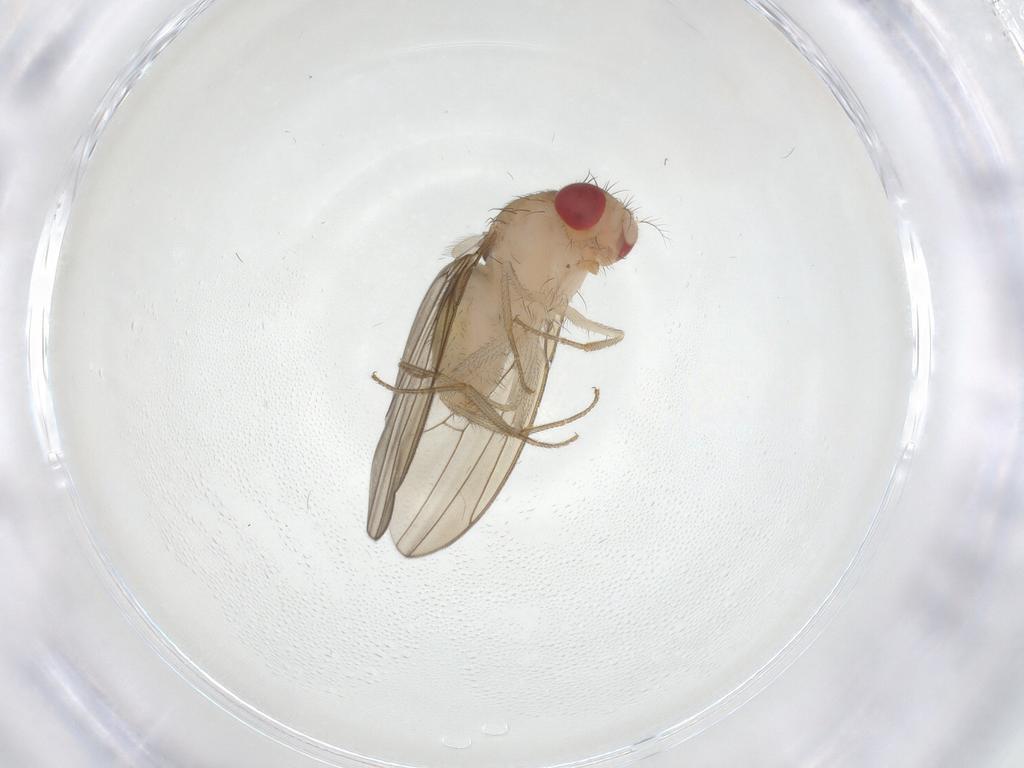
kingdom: Animalia
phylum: Arthropoda
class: Insecta
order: Diptera
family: Drosophilidae
